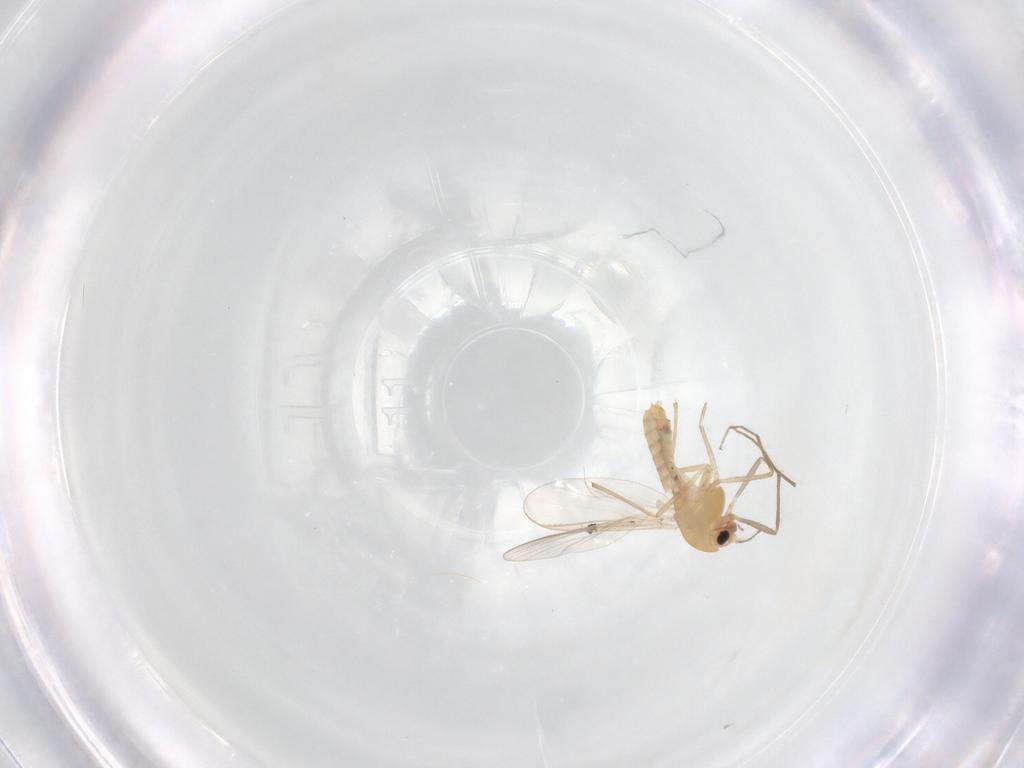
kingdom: Animalia
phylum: Arthropoda
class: Insecta
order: Diptera
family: Chironomidae
